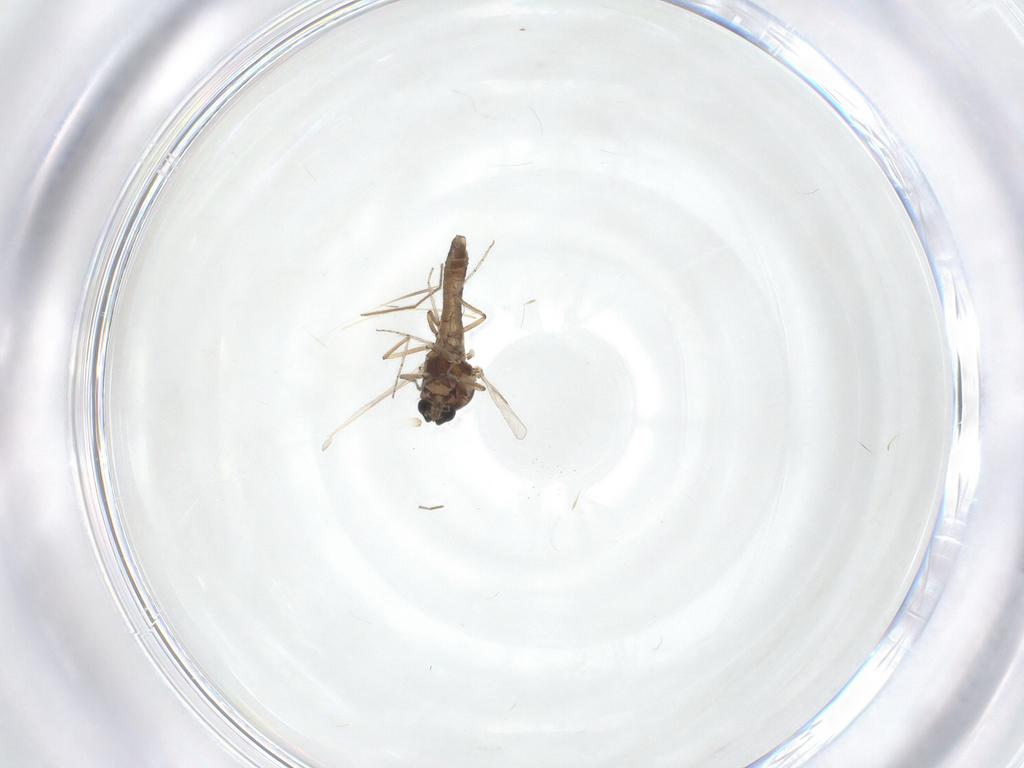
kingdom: Animalia
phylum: Arthropoda
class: Insecta
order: Diptera
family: Ceratopogonidae
